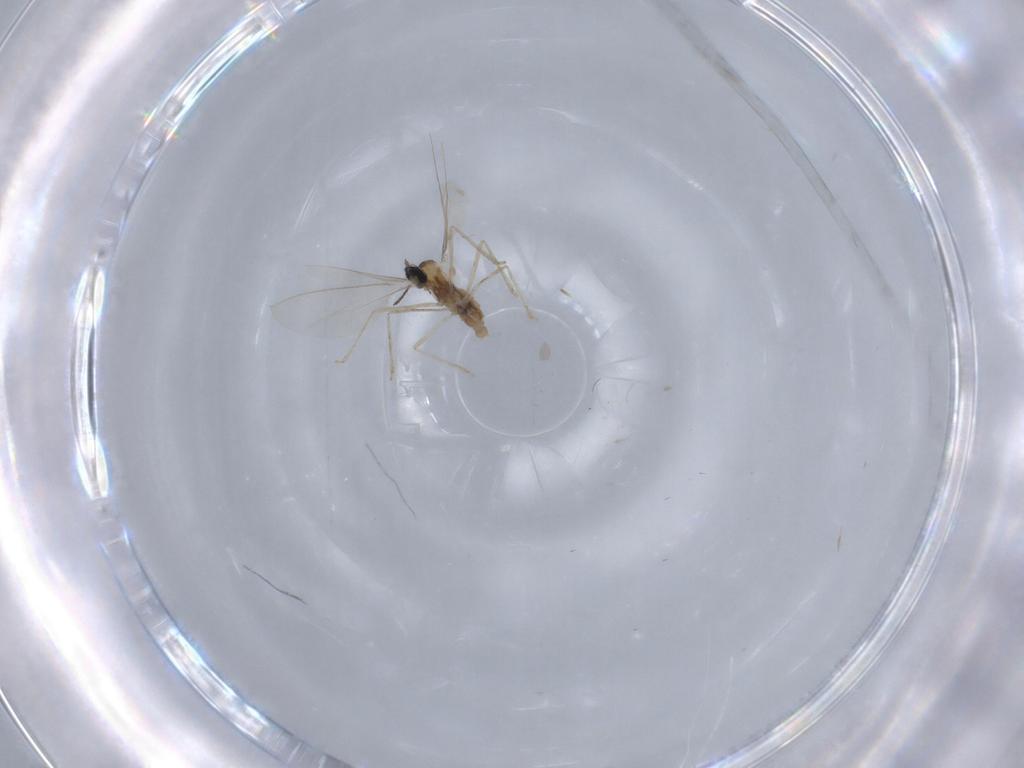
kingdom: Animalia
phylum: Arthropoda
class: Insecta
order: Diptera
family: Cecidomyiidae
